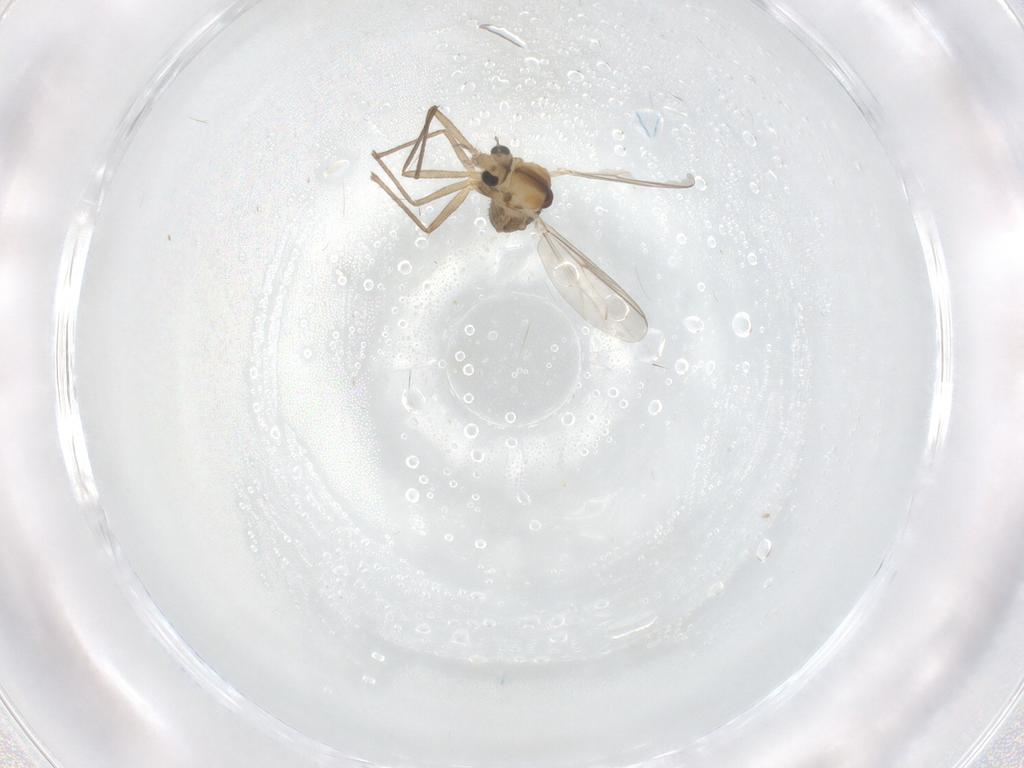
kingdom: Animalia
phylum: Arthropoda
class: Insecta
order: Diptera
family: Chironomidae
